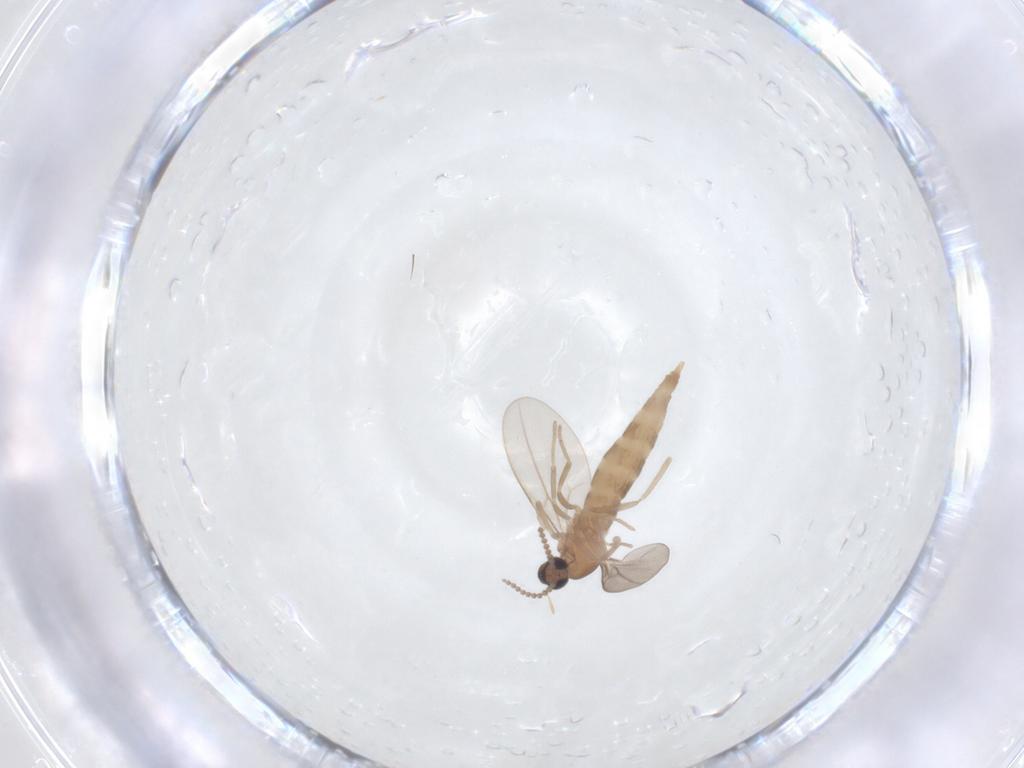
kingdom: Animalia
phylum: Arthropoda
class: Insecta
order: Diptera
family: Cecidomyiidae
